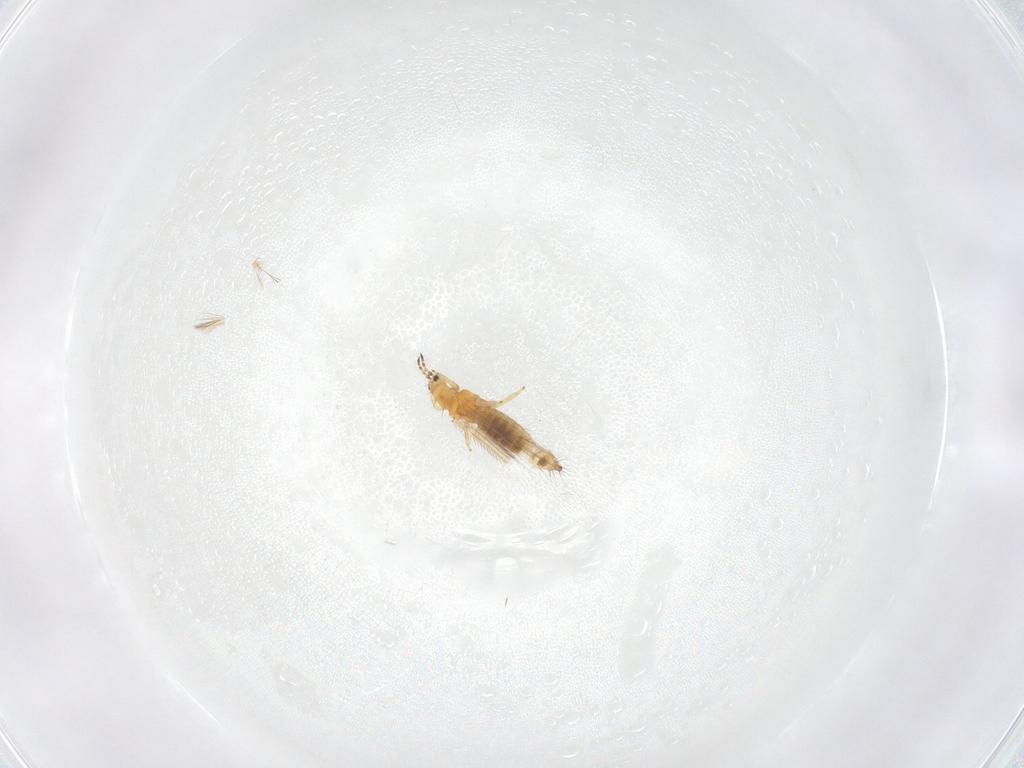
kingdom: Animalia
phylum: Arthropoda
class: Insecta
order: Thysanoptera
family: Thripidae
